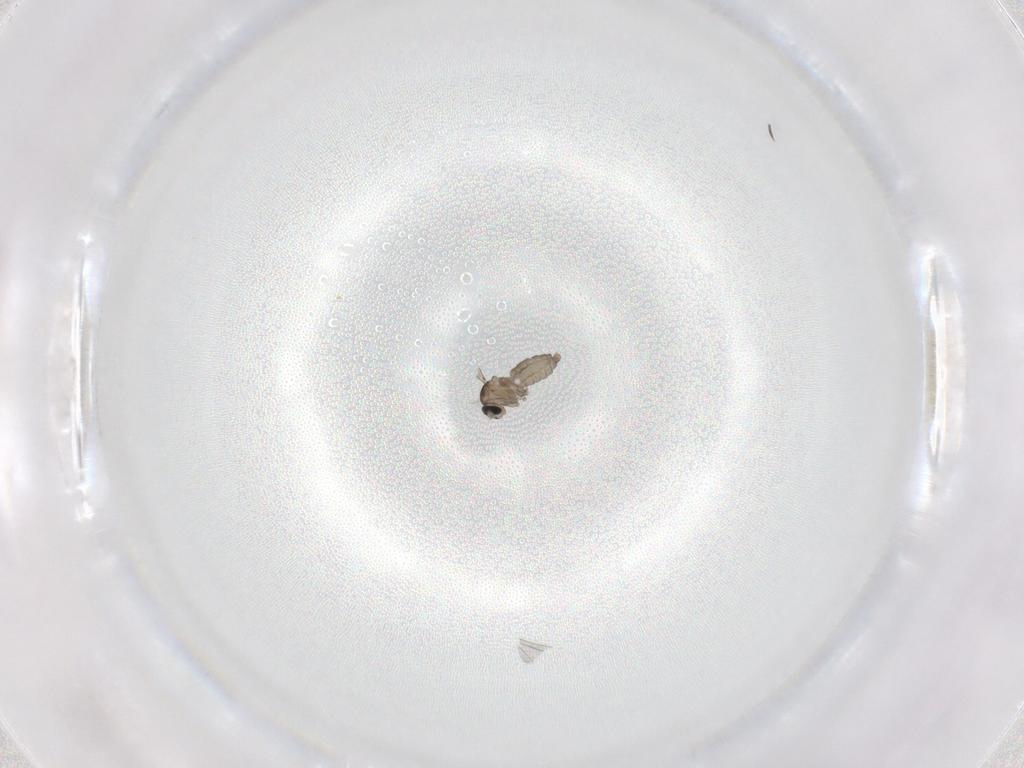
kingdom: Animalia
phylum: Arthropoda
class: Insecta
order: Diptera
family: Cecidomyiidae
